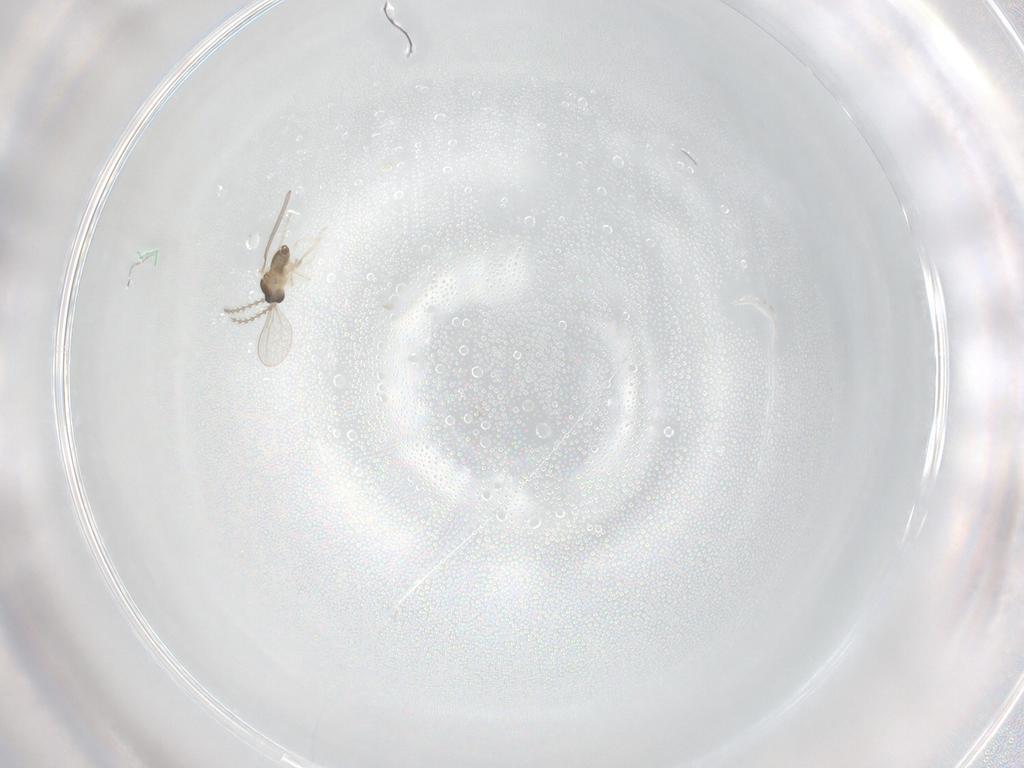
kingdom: Animalia
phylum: Arthropoda
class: Insecta
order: Diptera
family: Cecidomyiidae
